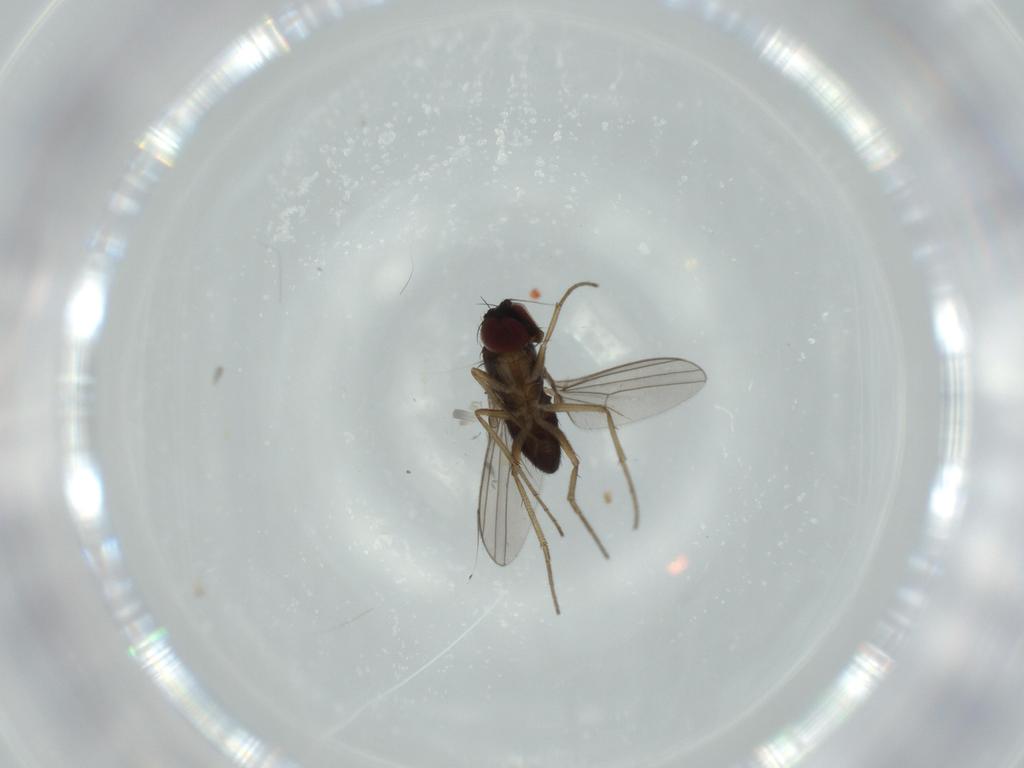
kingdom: Animalia
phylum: Arthropoda
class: Insecta
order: Diptera
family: Dolichopodidae
